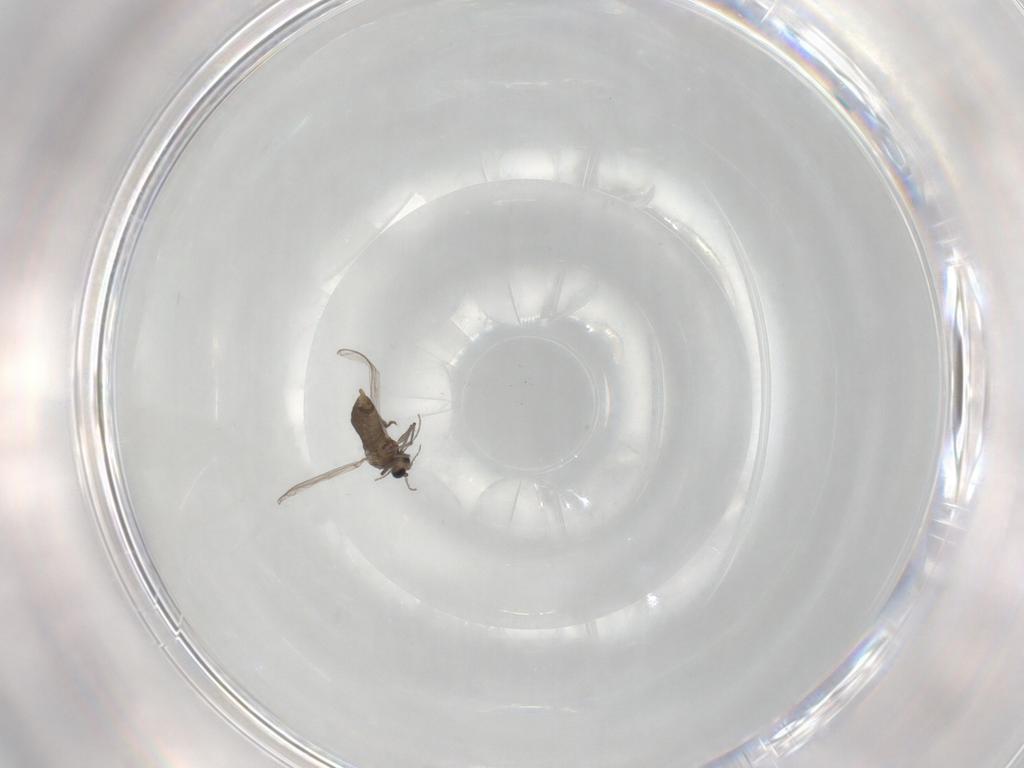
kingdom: Animalia
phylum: Arthropoda
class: Insecta
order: Diptera
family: Chironomidae
